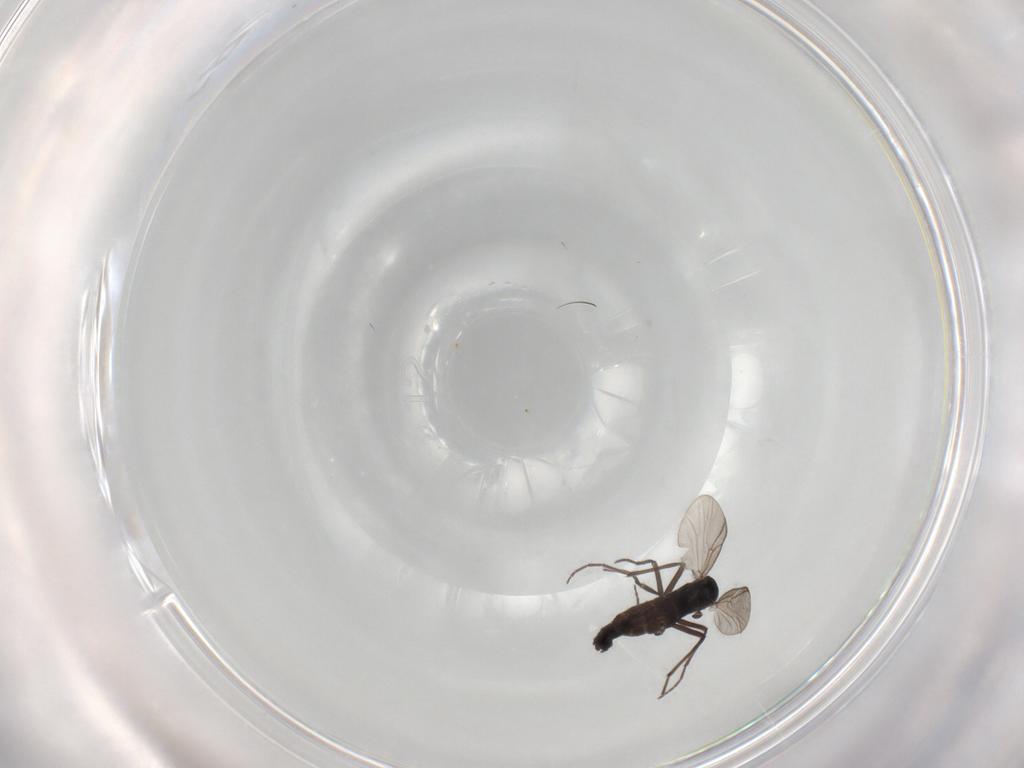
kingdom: Animalia
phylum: Arthropoda
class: Insecta
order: Diptera
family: Chironomidae
